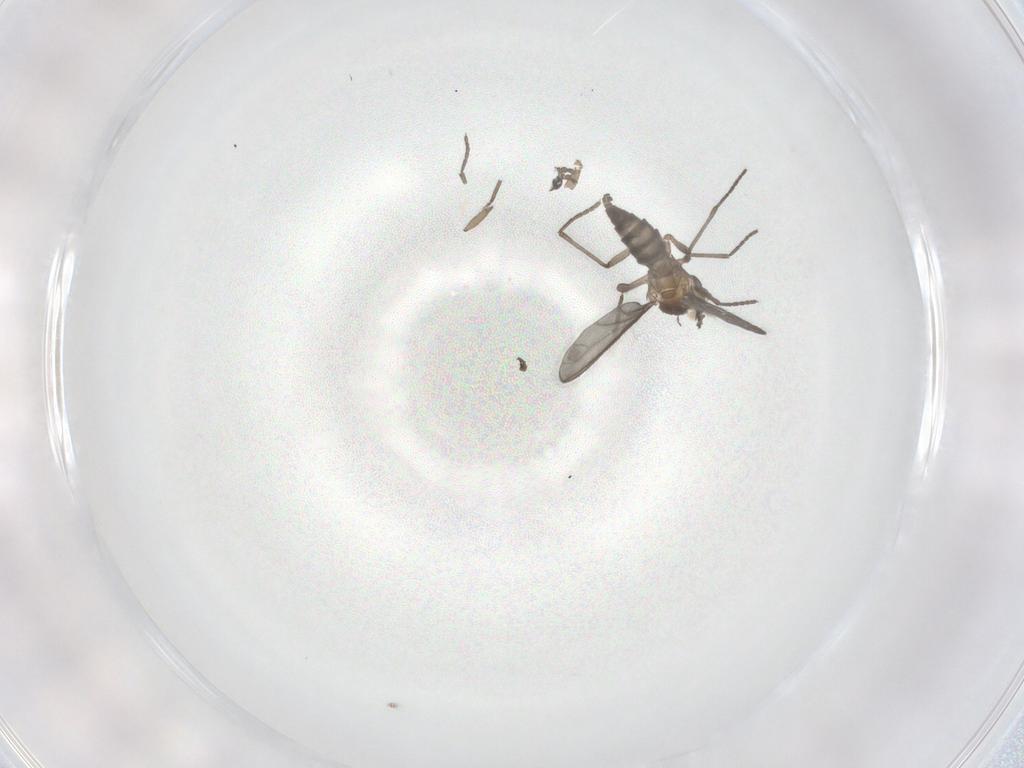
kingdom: Animalia
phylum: Arthropoda
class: Insecta
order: Diptera
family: Sciaridae
